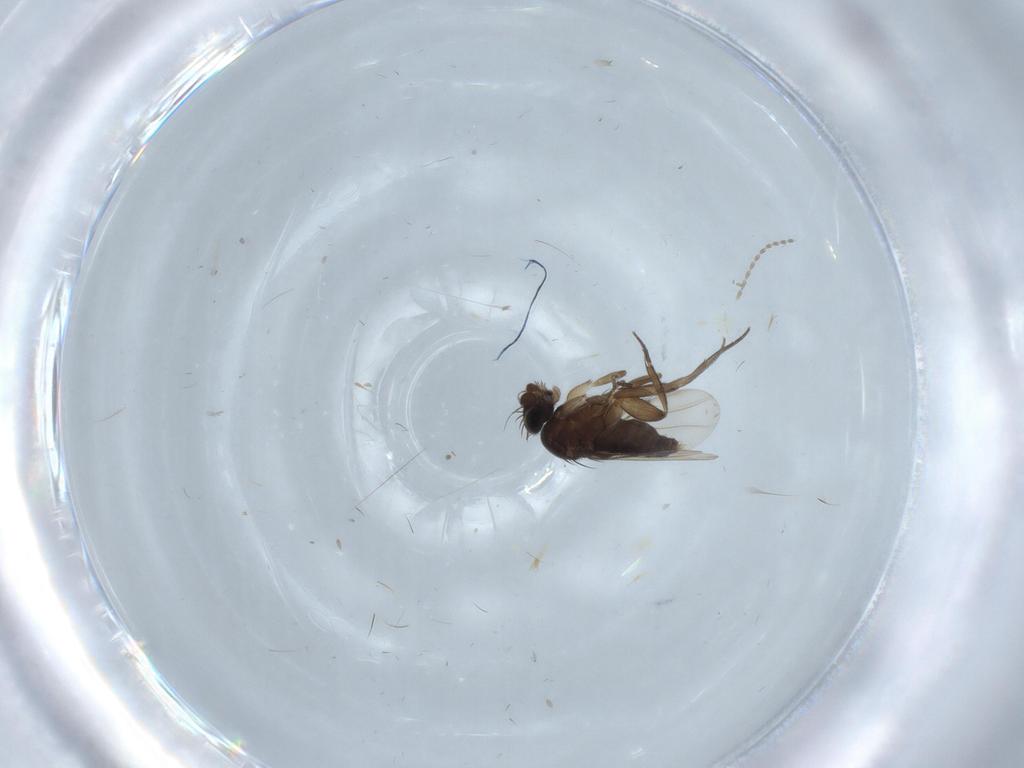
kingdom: Animalia
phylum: Arthropoda
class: Insecta
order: Diptera
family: Phoridae
